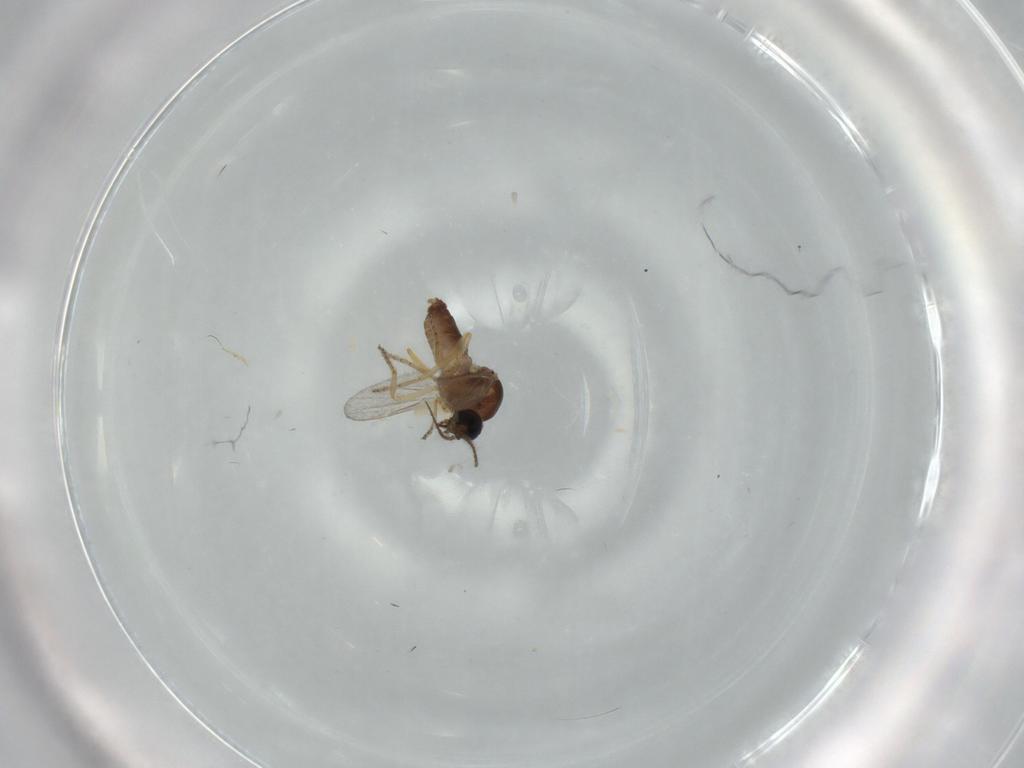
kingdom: Animalia
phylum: Arthropoda
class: Insecta
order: Diptera
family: Ceratopogonidae
